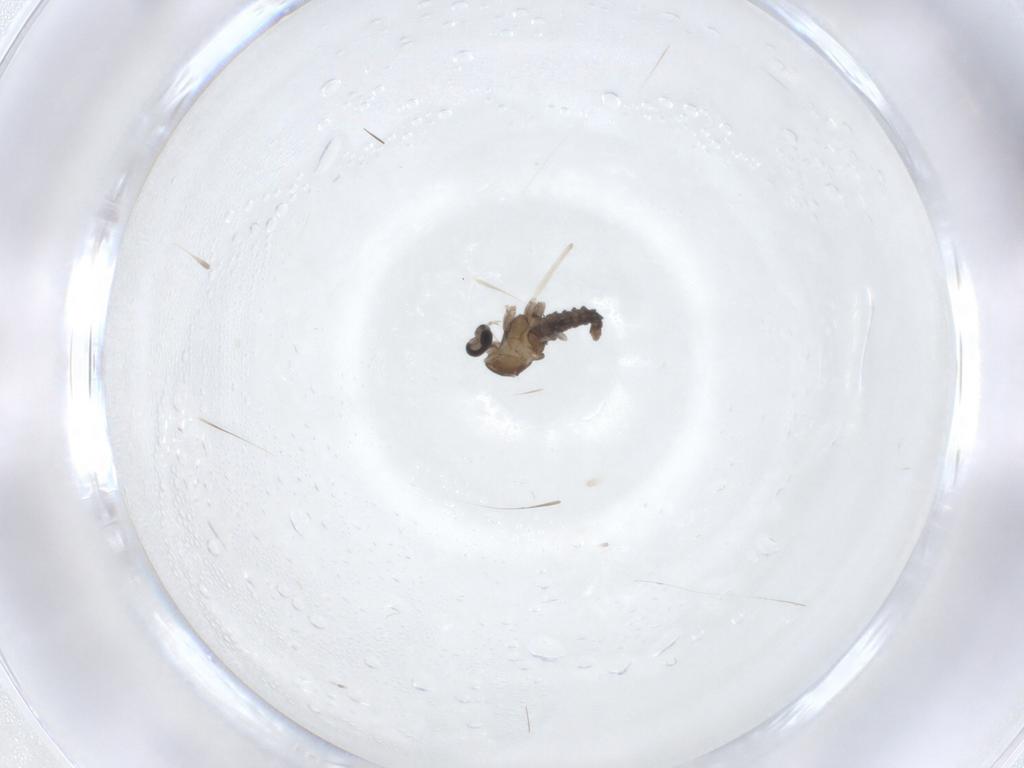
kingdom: Animalia
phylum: Arthropoda
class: Insecta
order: Diptera
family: Cecidomyiidae
